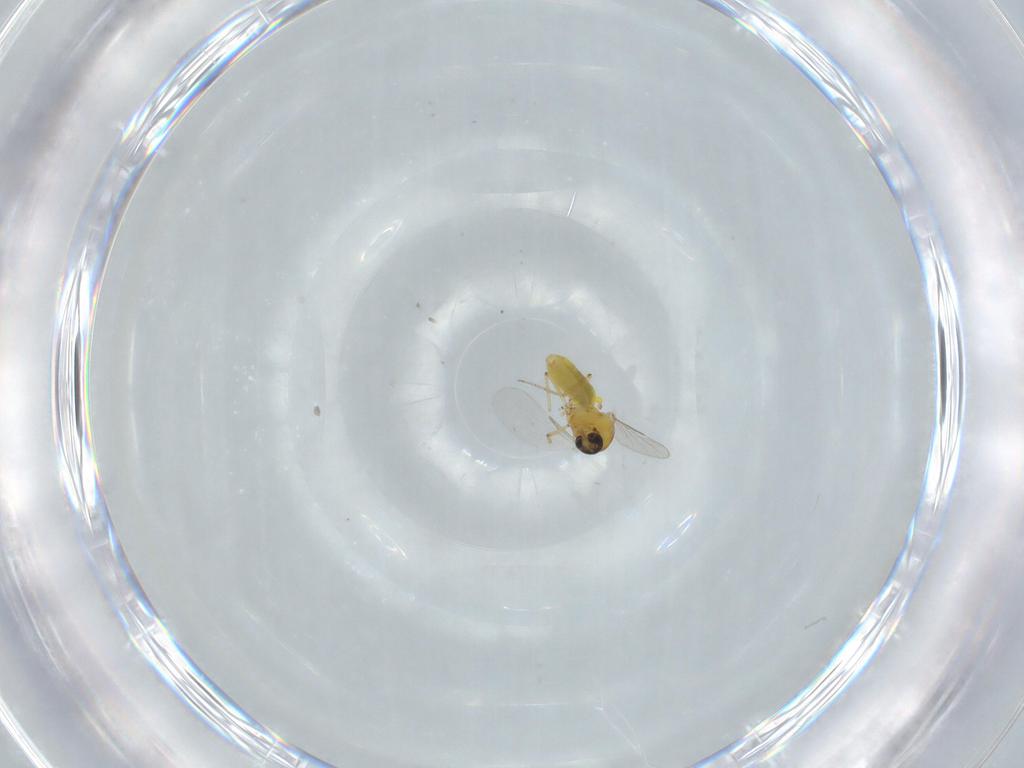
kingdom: Animalia
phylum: Arthropoda
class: Insecta
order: Diptera
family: Ceratopogonidae
